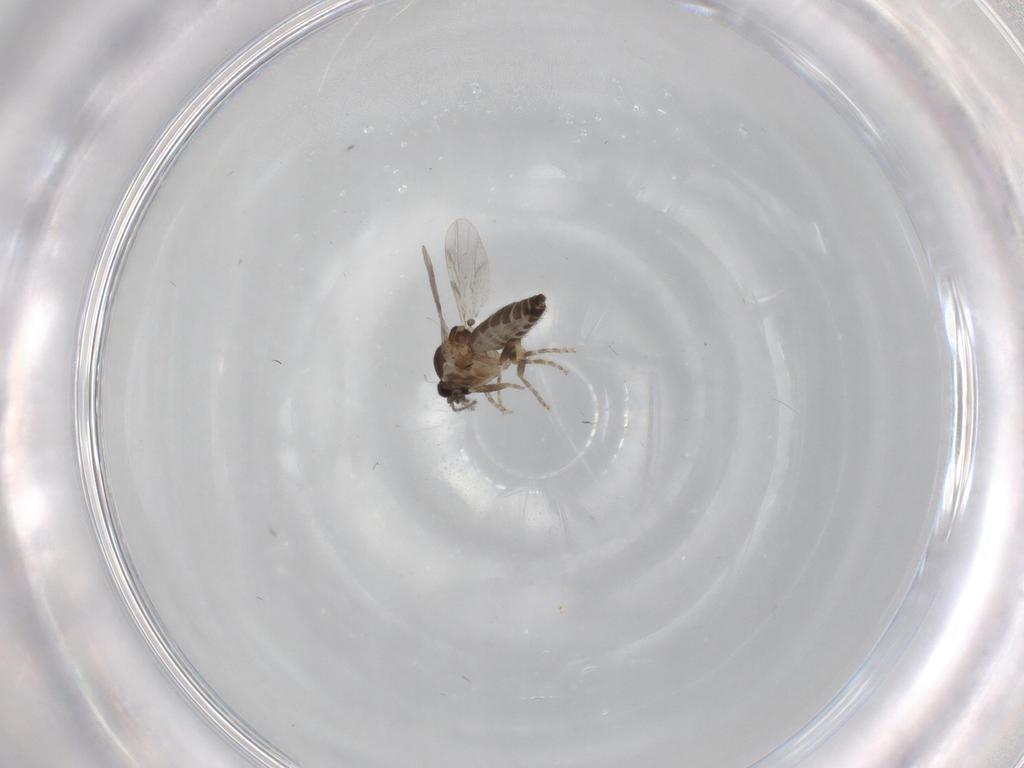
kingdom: Animalia
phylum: Arthropoda
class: Insecta
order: Diptera
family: Ceratopogonidae
